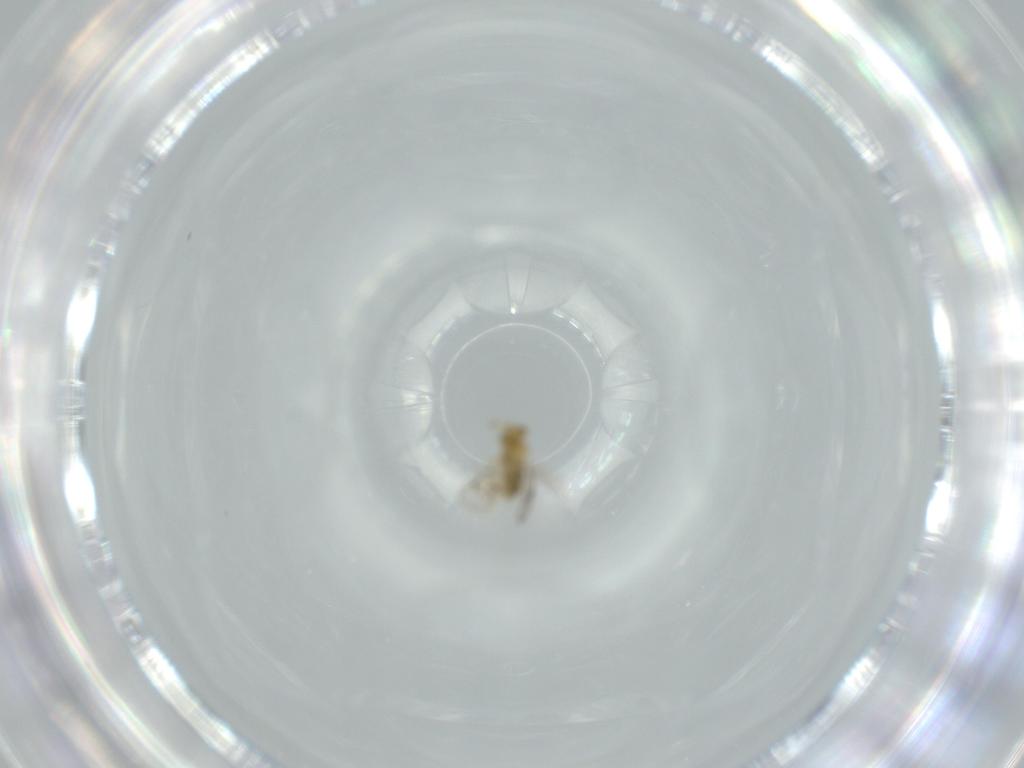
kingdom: Animalia
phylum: Arthropoda
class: Insecta
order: Hymenoptera
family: Aphelinidae
